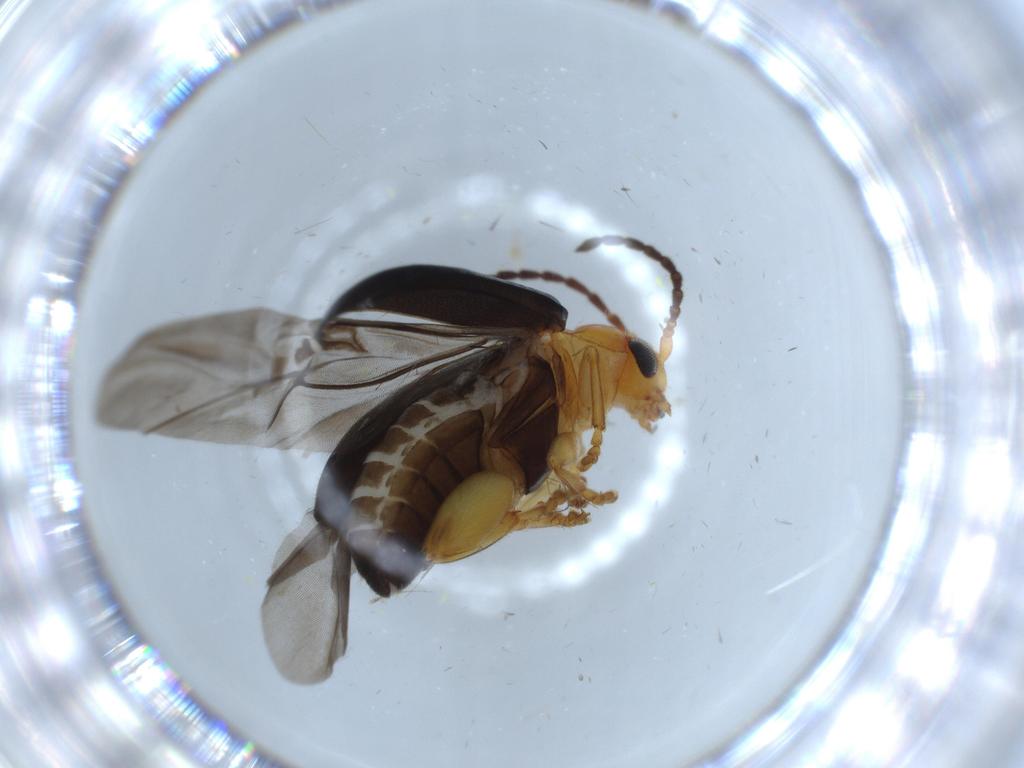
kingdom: Animalia
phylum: Arthropoda
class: Insecta
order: Coleoptera
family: Chrysomelidae
